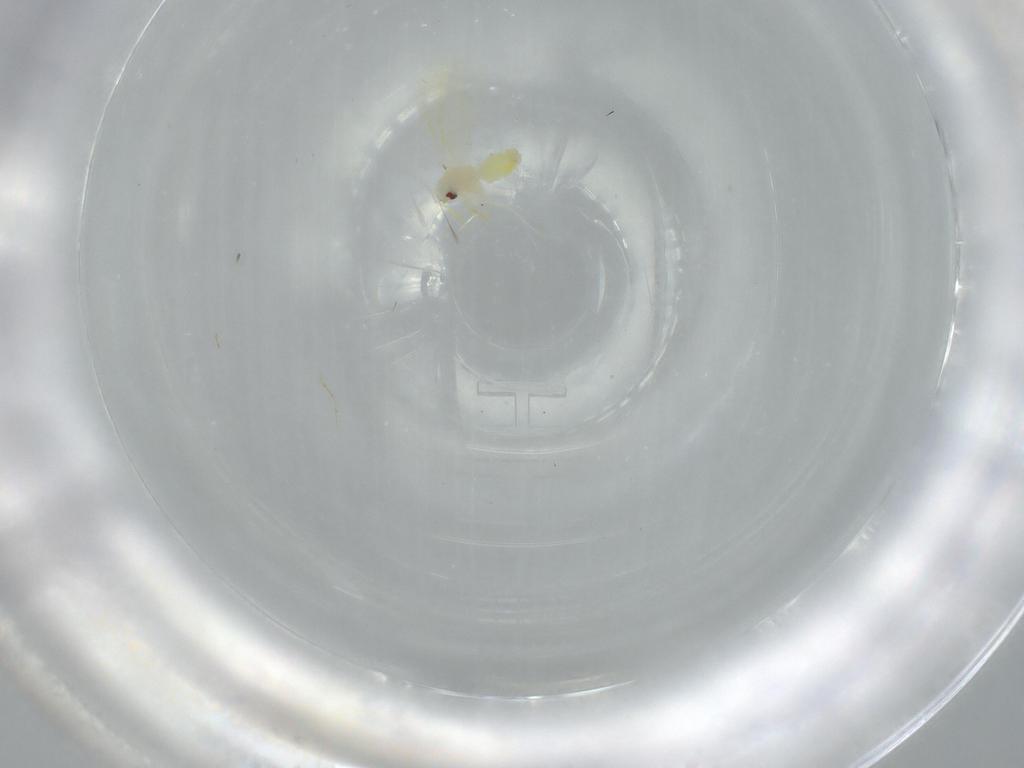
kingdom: Animalia
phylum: Arthropoda
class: Insecta
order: Hemiptera
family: Aleyrodidae
